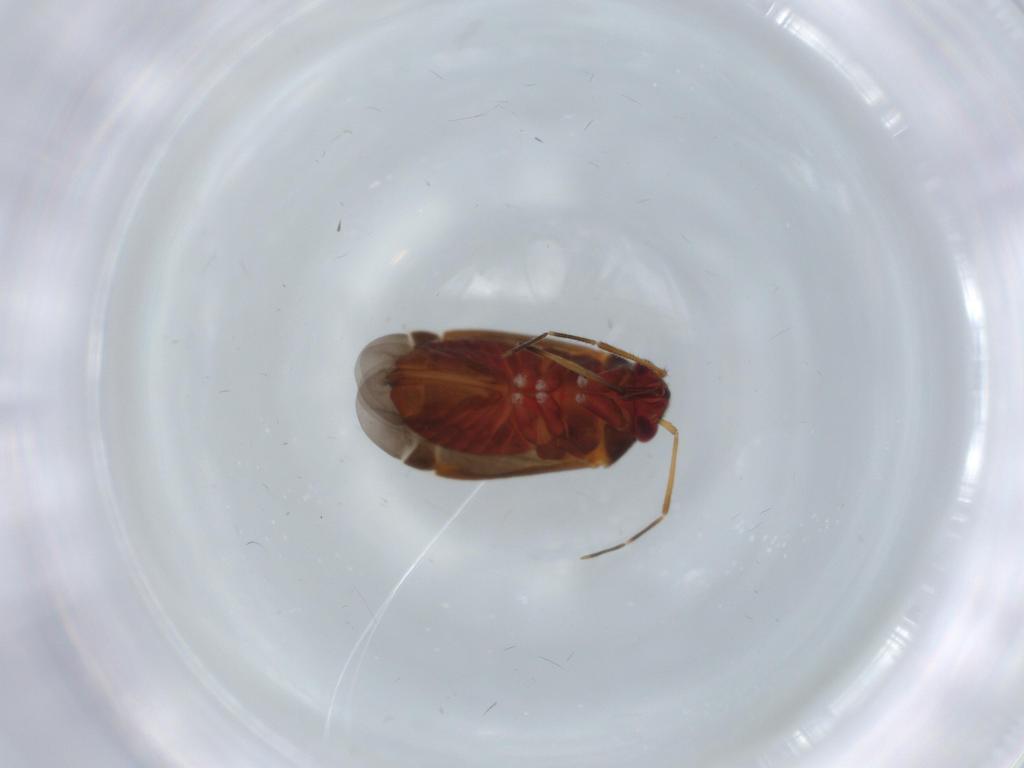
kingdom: Animalia
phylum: Arthropoda
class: Insecta
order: Hemiptera
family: Miridae
